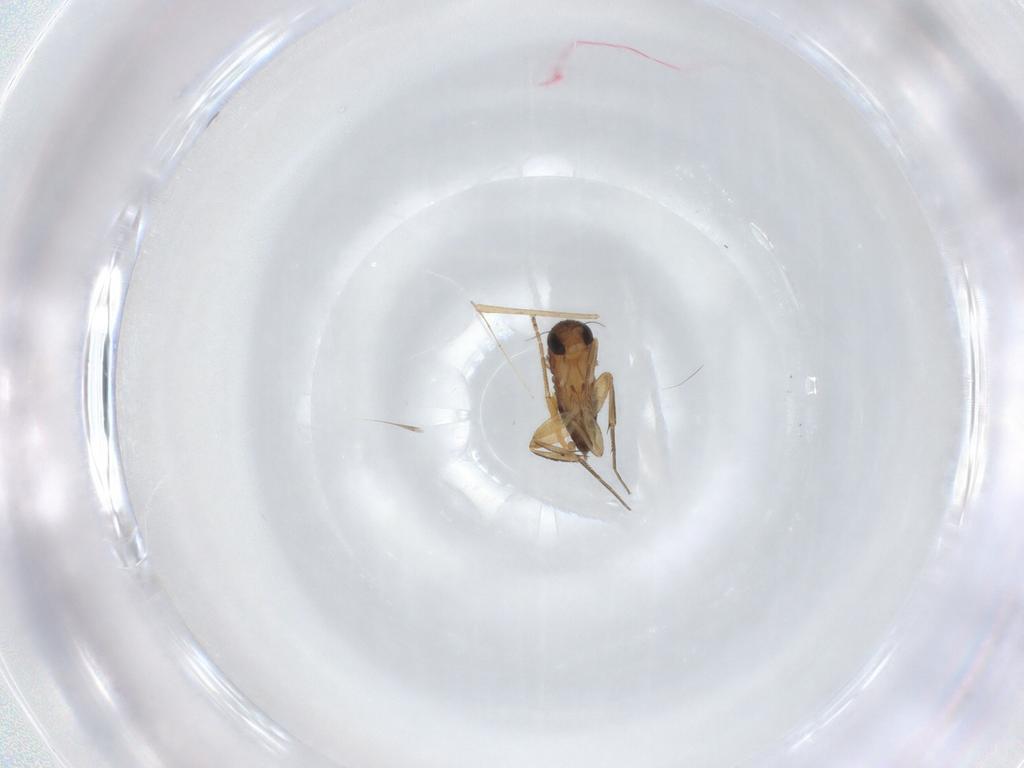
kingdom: Animalia
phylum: Arthropoda
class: Insecta
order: Diptera
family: Phoridae
